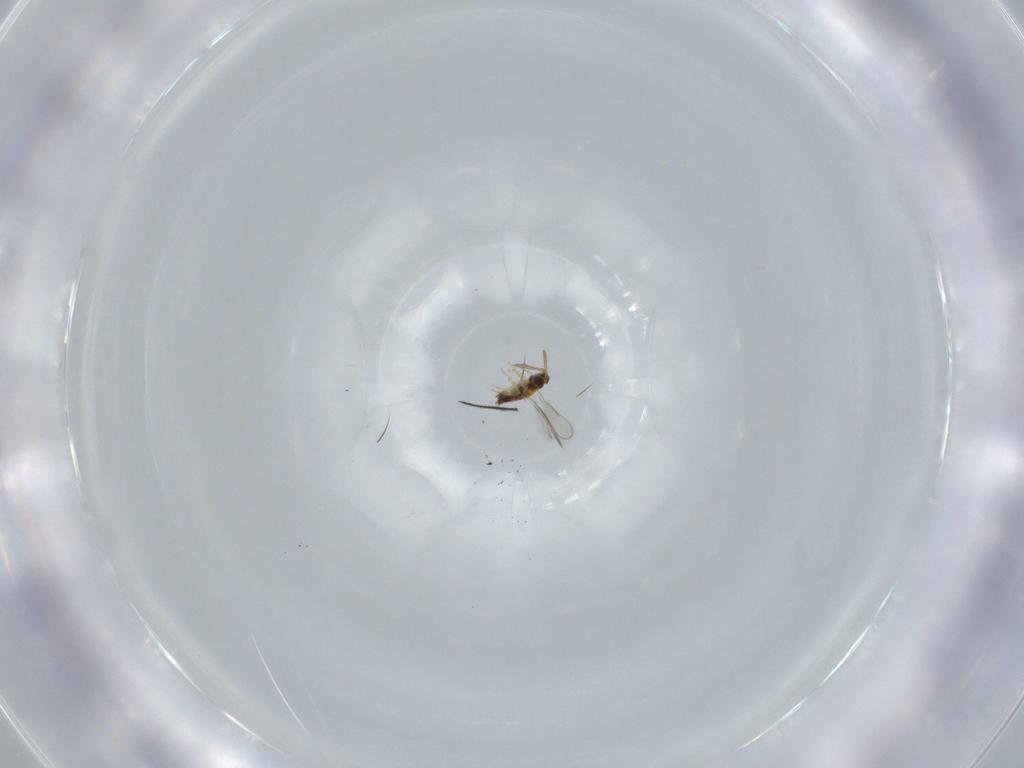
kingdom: Animalia
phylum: Arthropoda
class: Insecta
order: Hymenoptera
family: Aphelinidae
